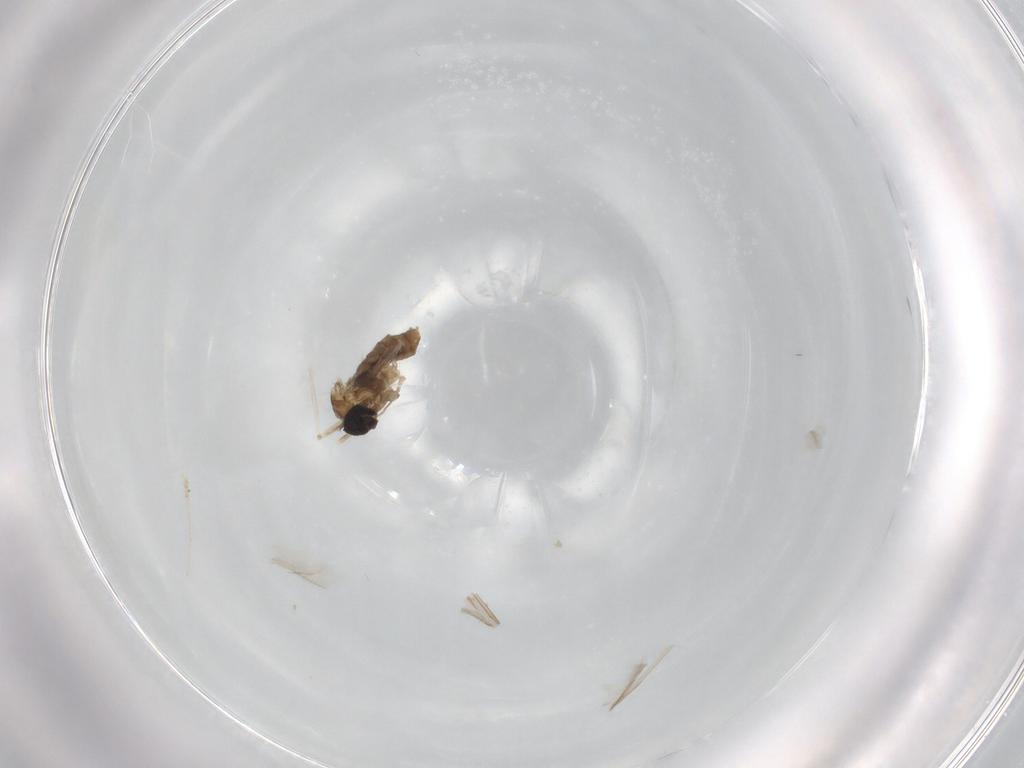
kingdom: Animalia
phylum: Arthropoda
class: Insecta
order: Diptera
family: Cecidomyiidae
